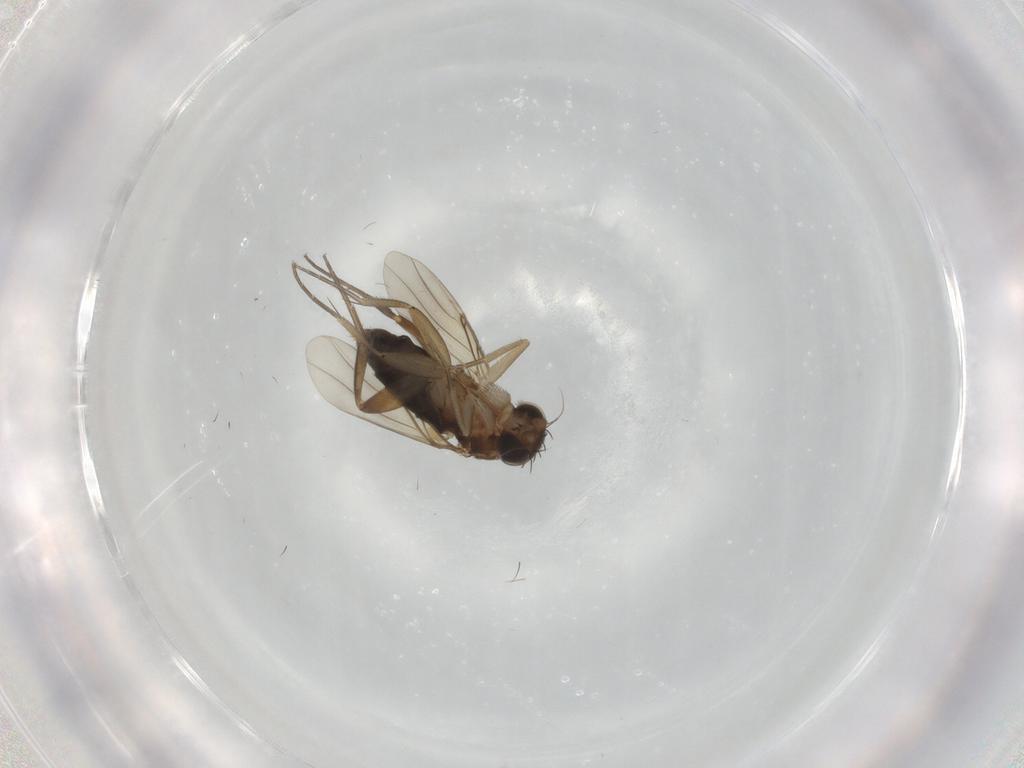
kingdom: Animalia
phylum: Arthropoda
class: Insecta
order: Diptera
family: Phoridae
